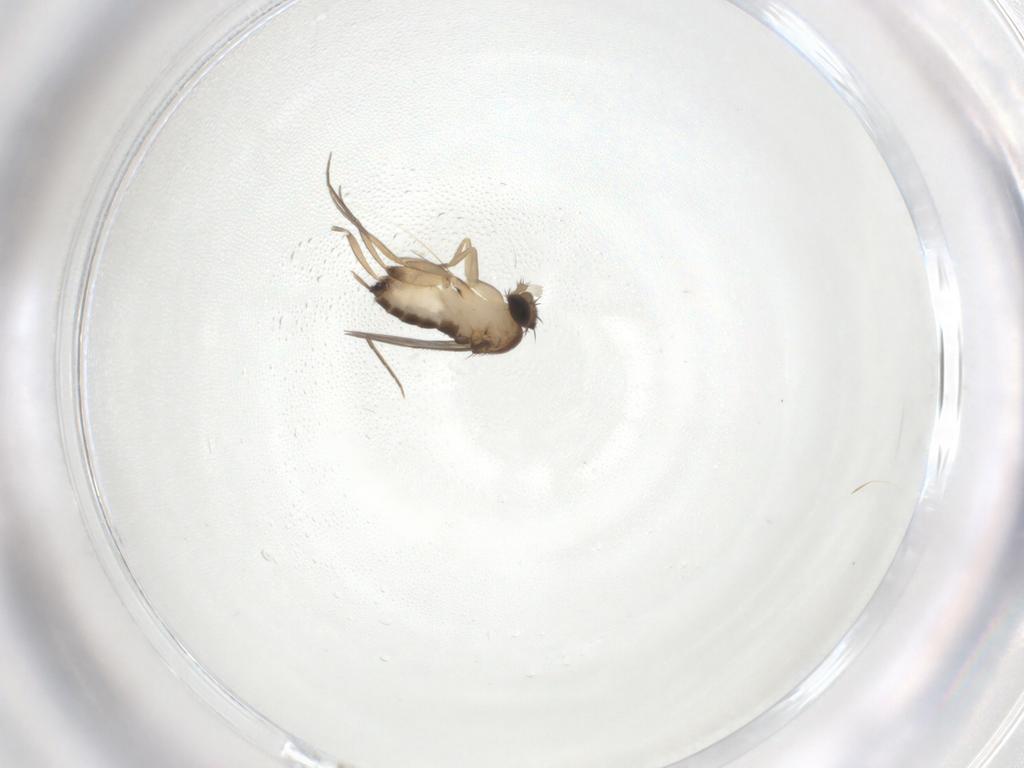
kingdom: Animalia
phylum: Arthropoda
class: Insecta
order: Diptera
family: Phoridae
